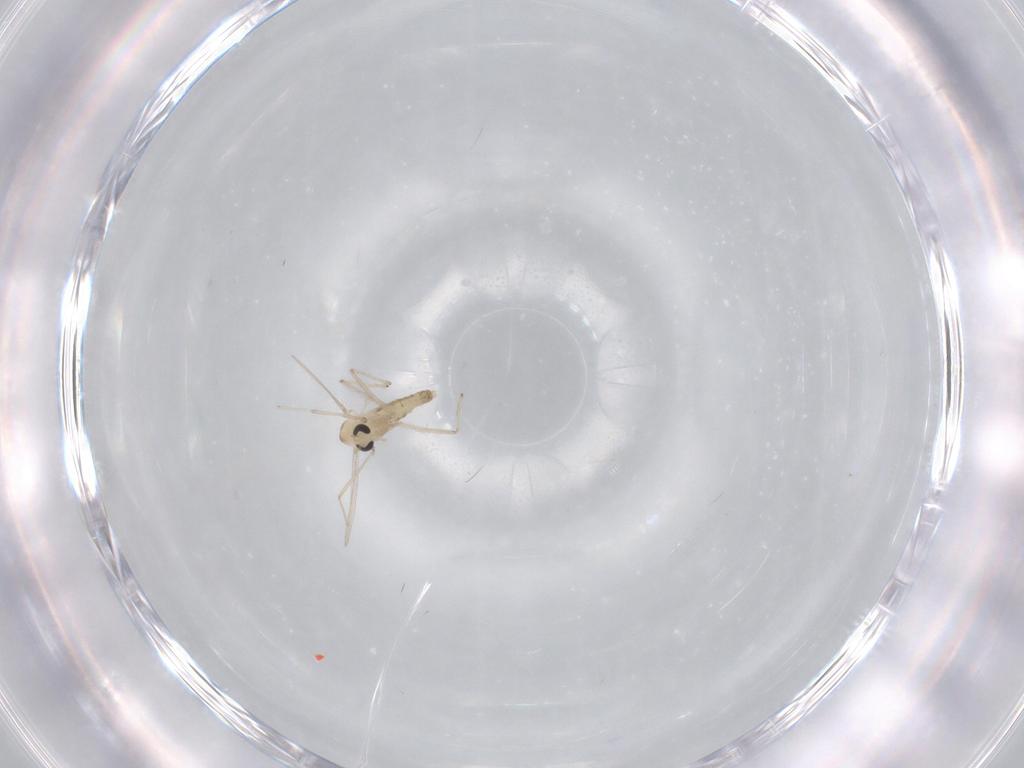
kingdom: Animalia
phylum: Arthropoda
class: Insecta
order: Diptera
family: Chironomidae
